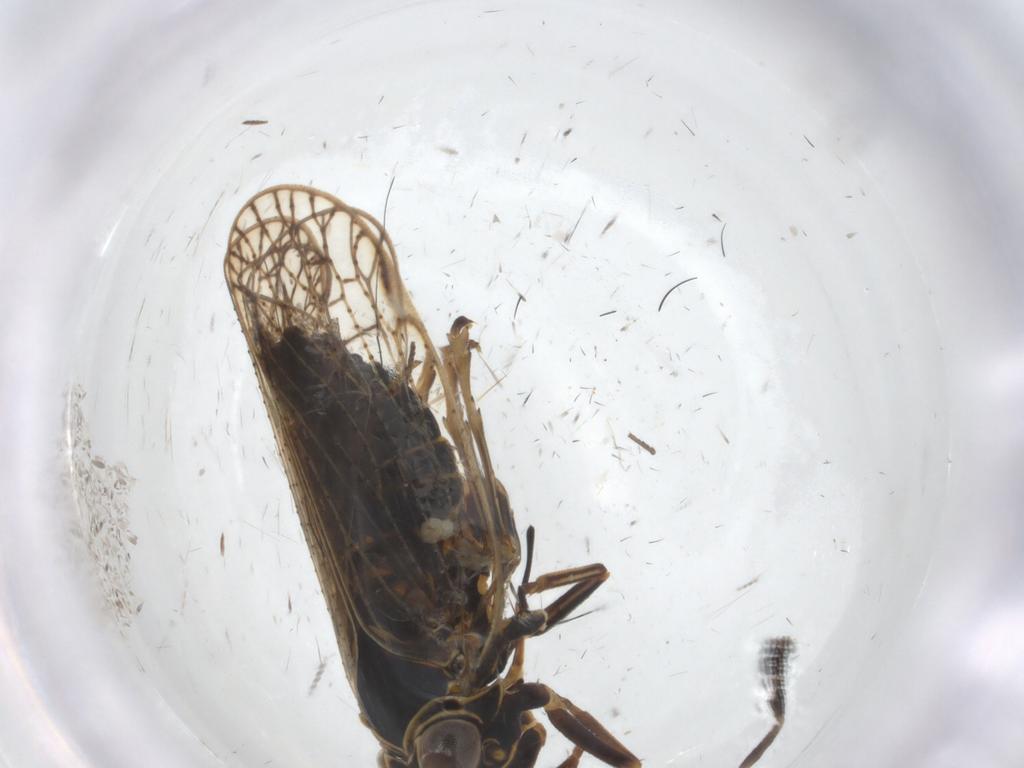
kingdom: Animalia
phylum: Arthropoda
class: Insecta
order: Hemiptera
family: Cixiidae
